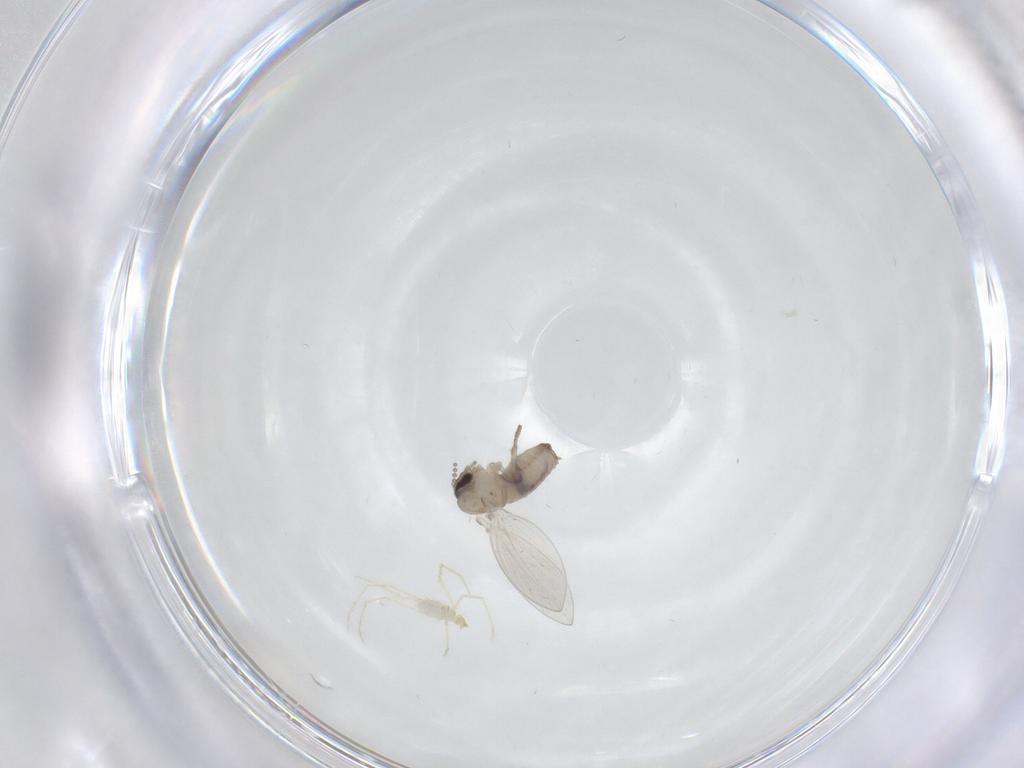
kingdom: Animalia
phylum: Arthropoda
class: Insecta
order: Diptera
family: Psychodidae
